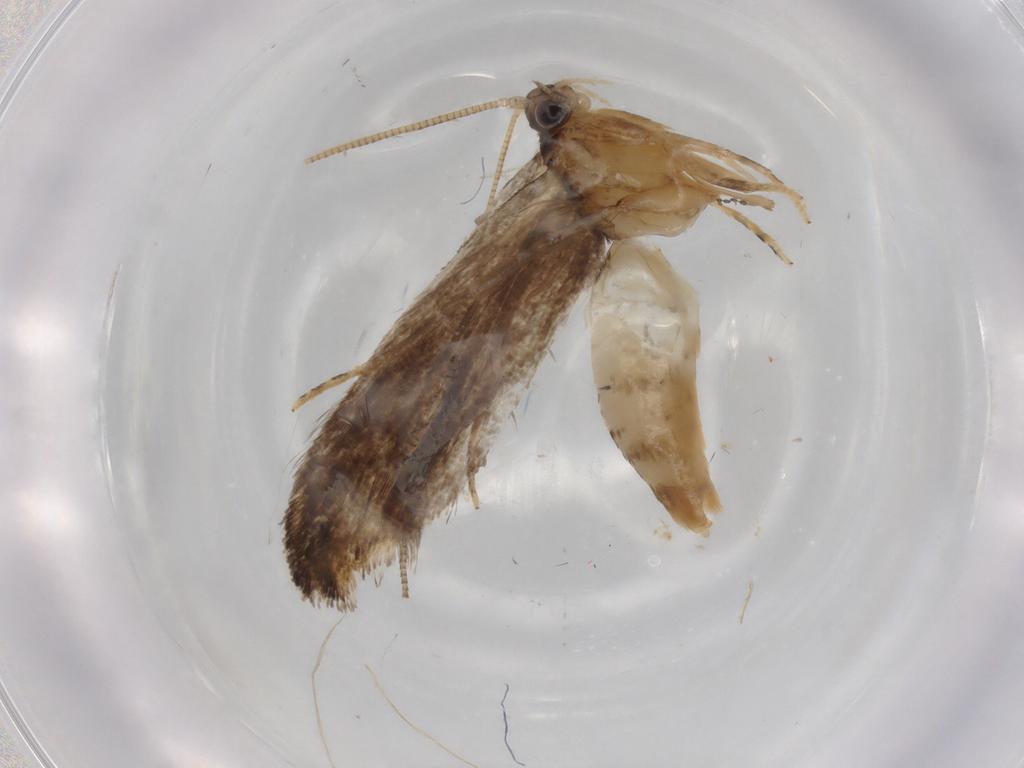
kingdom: Animalia
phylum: Arthropoda
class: Insecta
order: Lepidoptera
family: Tineidae
